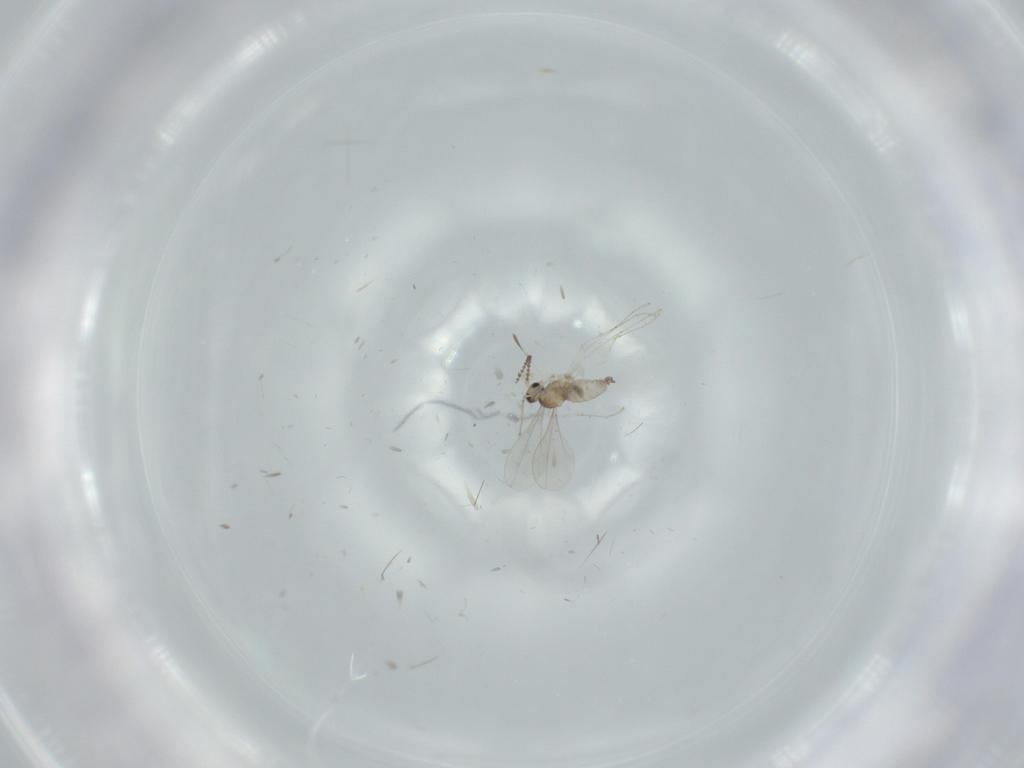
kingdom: Animalia
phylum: Arthropoda
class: Insecta
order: Diptera
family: Cecidomyiidae
